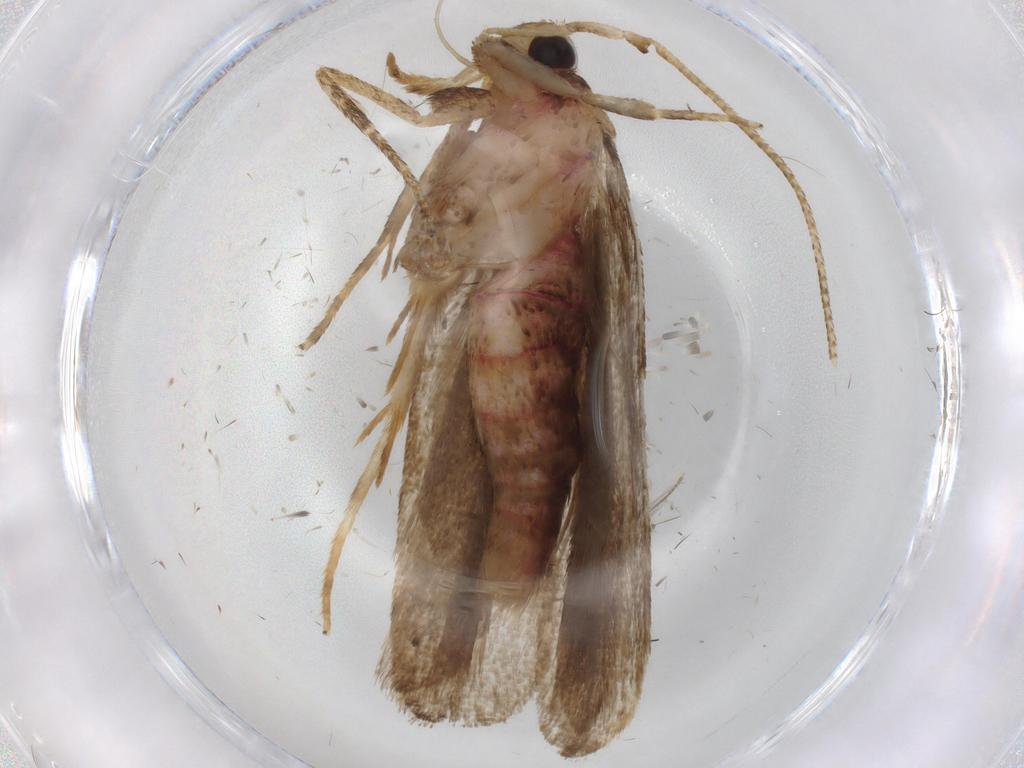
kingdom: Animalia
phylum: Arthropoda
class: Insecta
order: Lepidoptera
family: Autostichidae
